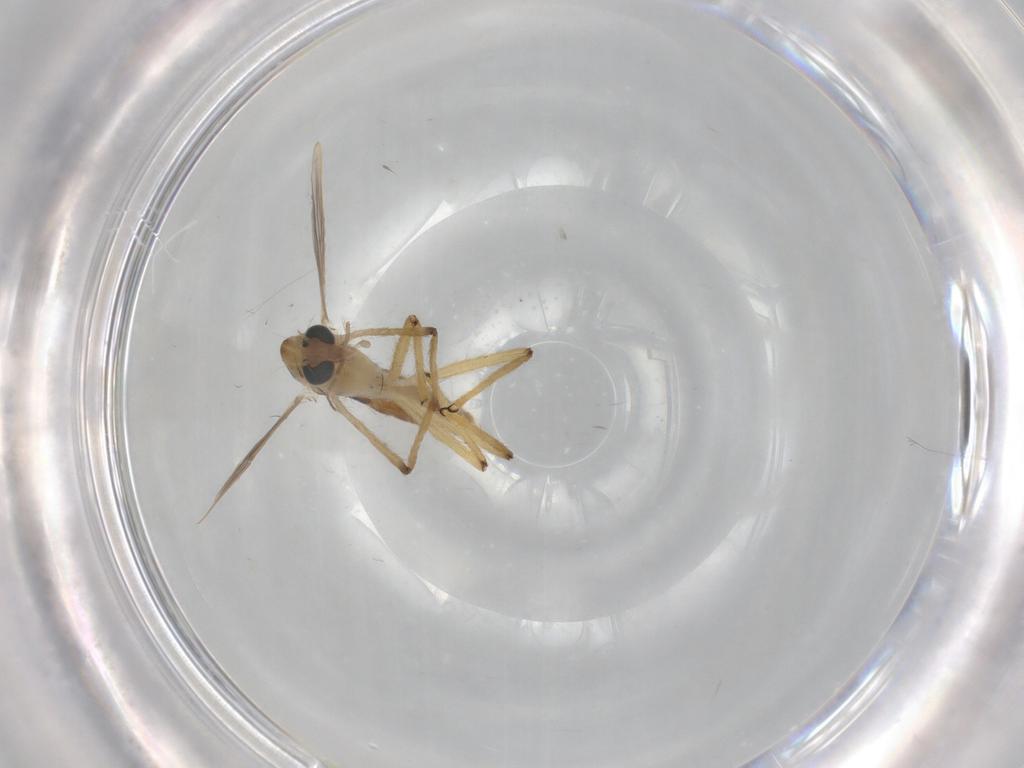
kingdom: Animalia
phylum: Arthropoda
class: Insecta
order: Diptera
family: Chironomidae
